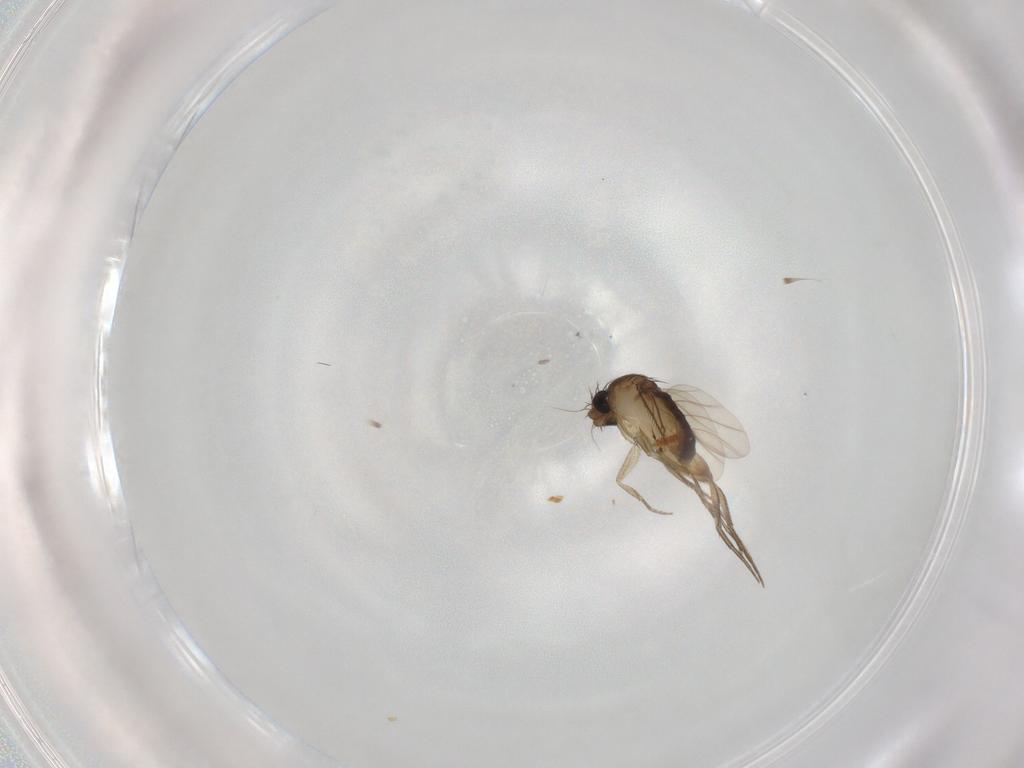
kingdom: Animalia
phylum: Arthropoda
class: Insecta
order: Diptera
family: Phoridae
